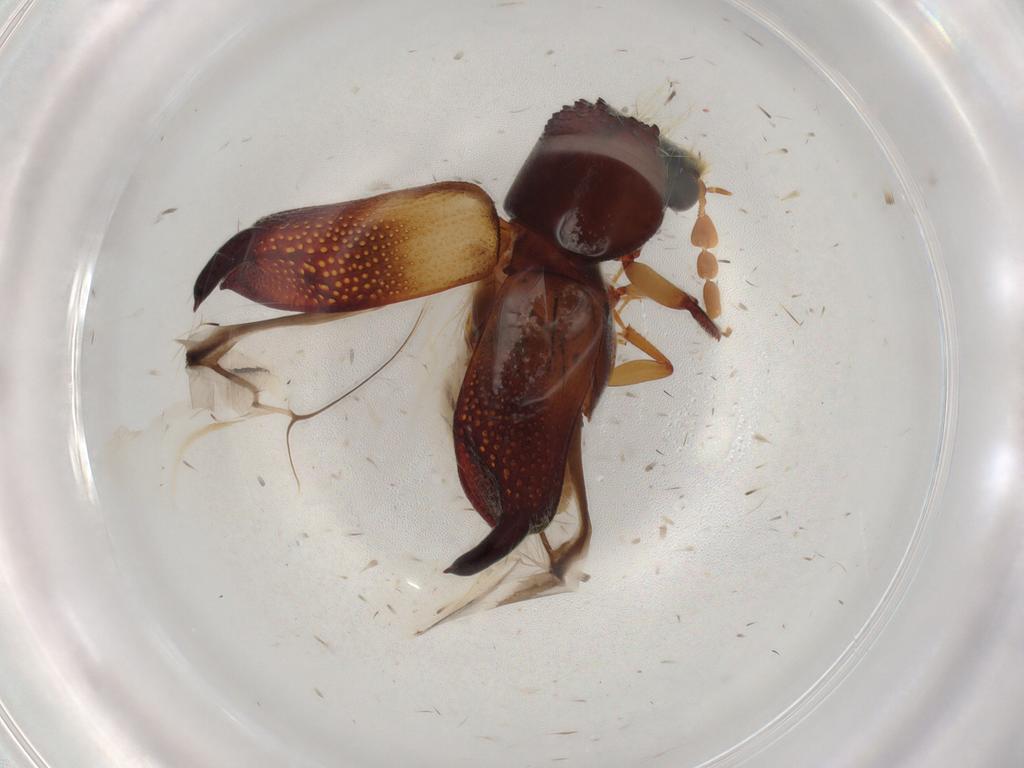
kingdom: Animalia
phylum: Arthropoda
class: Insecta
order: Coleoptera
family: Bostrichidae
